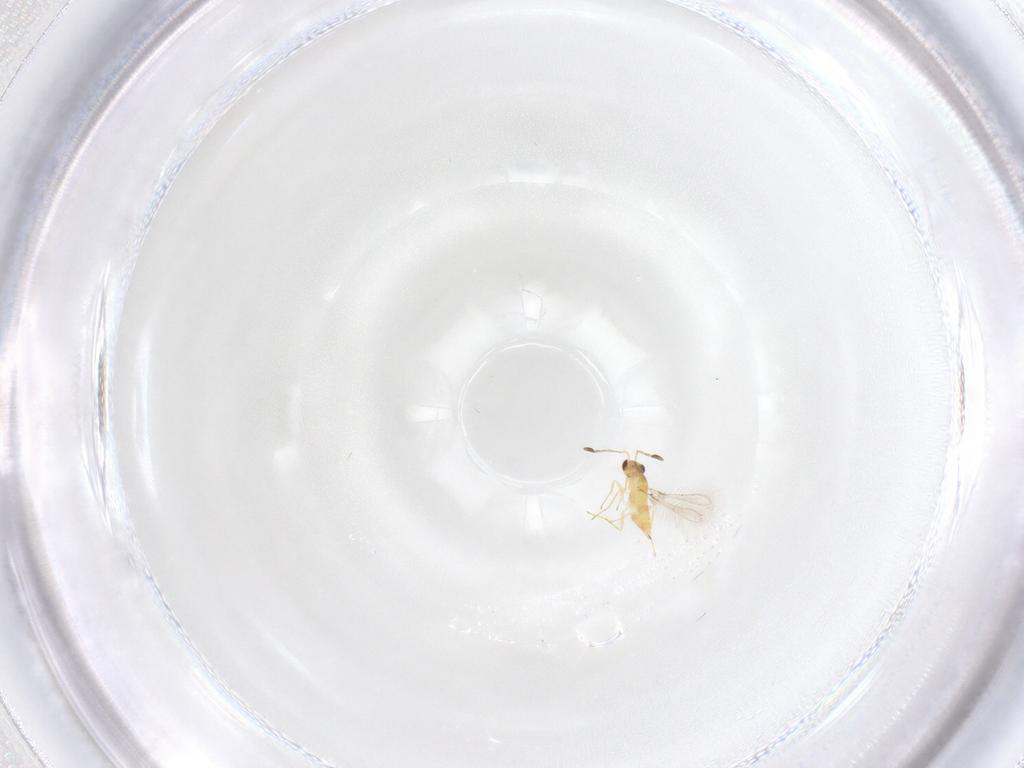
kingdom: Animalia
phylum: Arthropoda
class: Insecta
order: Hymenoptera
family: Mymaridae
